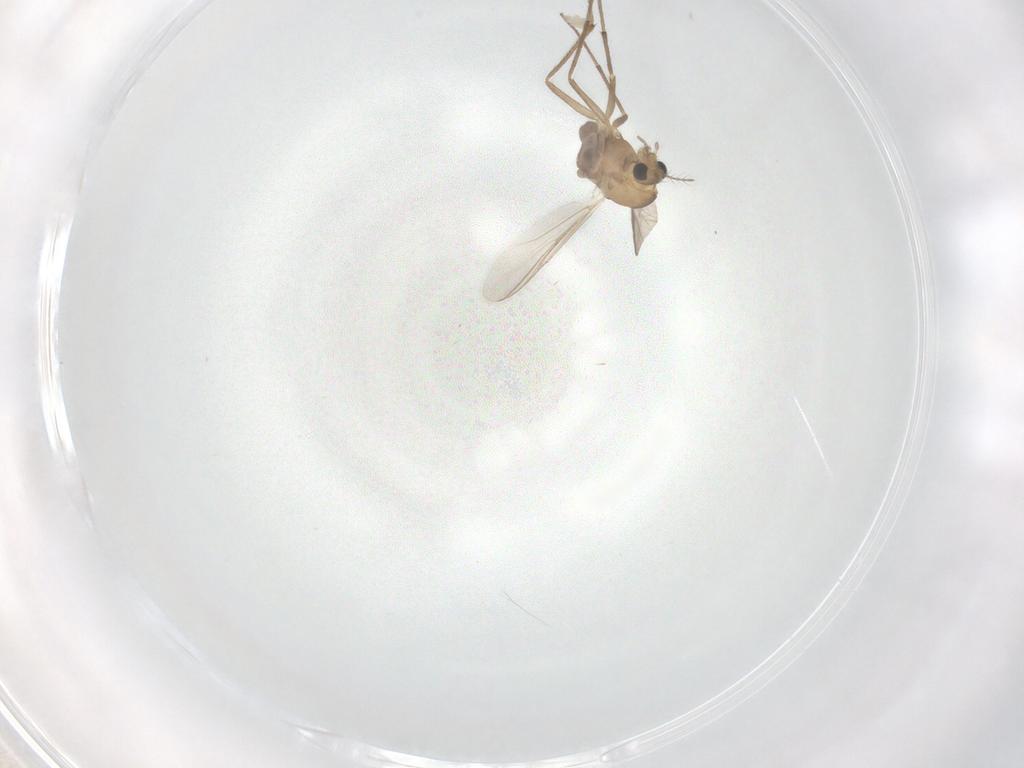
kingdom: Animalia
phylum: Arthropoda
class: Insecta
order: Diptera
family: Chironomidae
